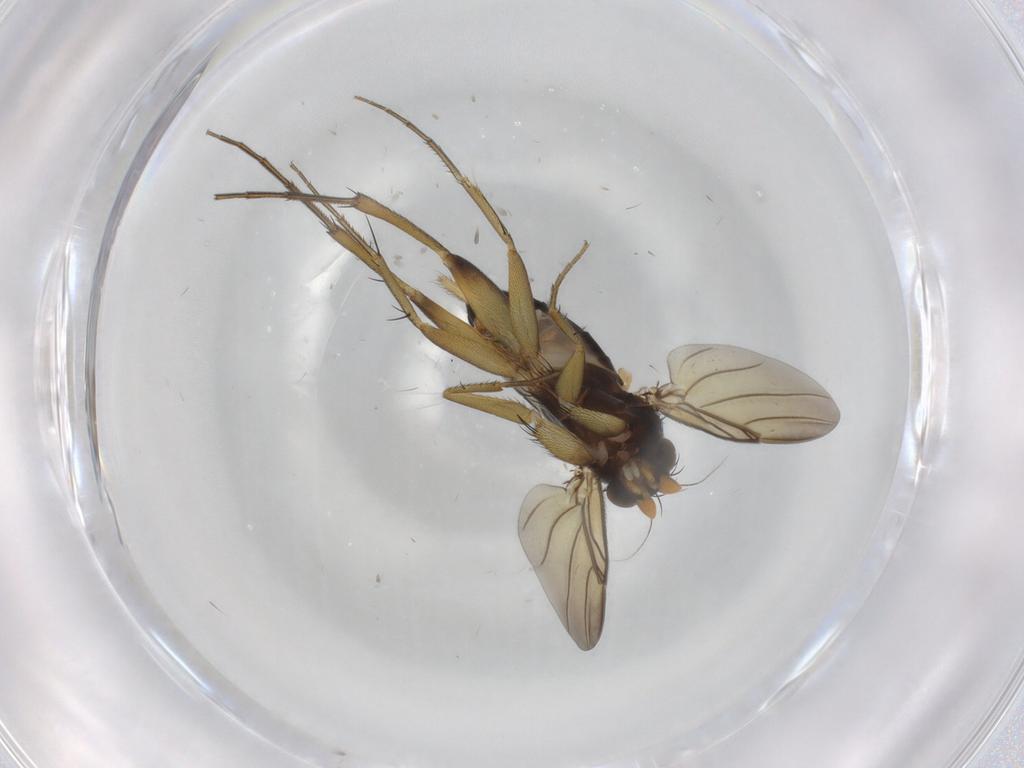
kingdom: Animalia
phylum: Arthropoda
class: Insecta
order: Diptera
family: Phoridae
